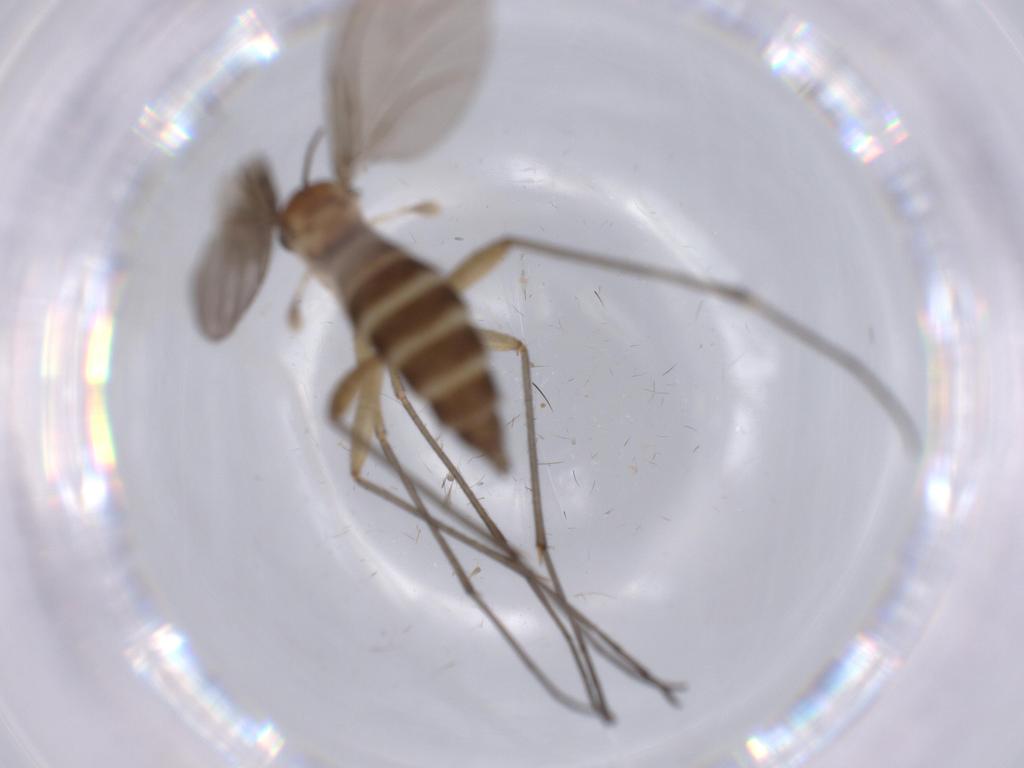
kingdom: Animalia
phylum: Arthropoda
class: Insecta
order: Diptera
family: Sciaridae
